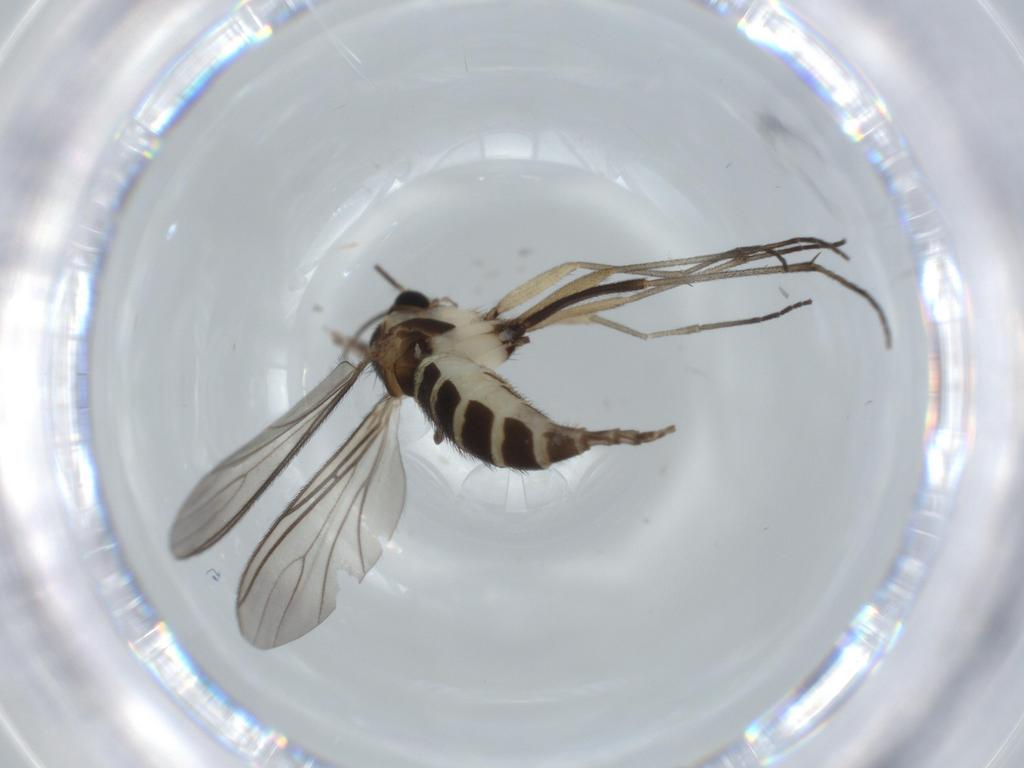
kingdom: Animalia
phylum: Arthropoda
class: Insecta
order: Diptera
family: Sciaridae
